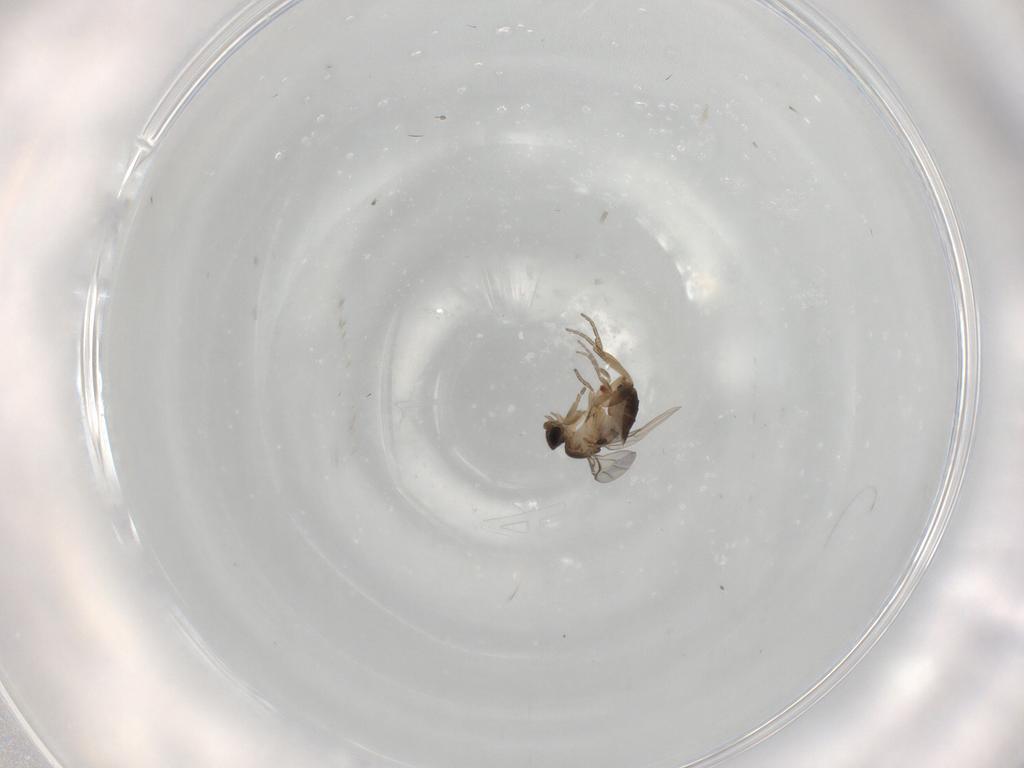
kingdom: Animalia
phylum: Arthropoda
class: Insecta
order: Diptera
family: Phoridae
